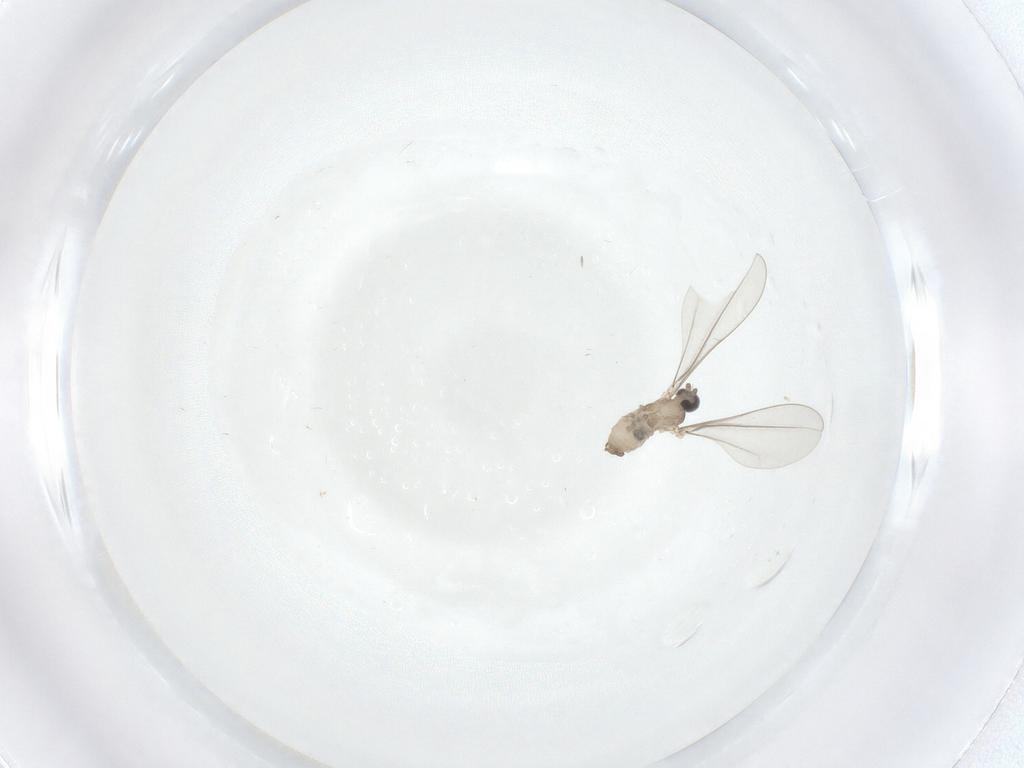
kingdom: Animalia
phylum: Arthropoda
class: Insecta
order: Diptera
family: Cecidomyiidae
